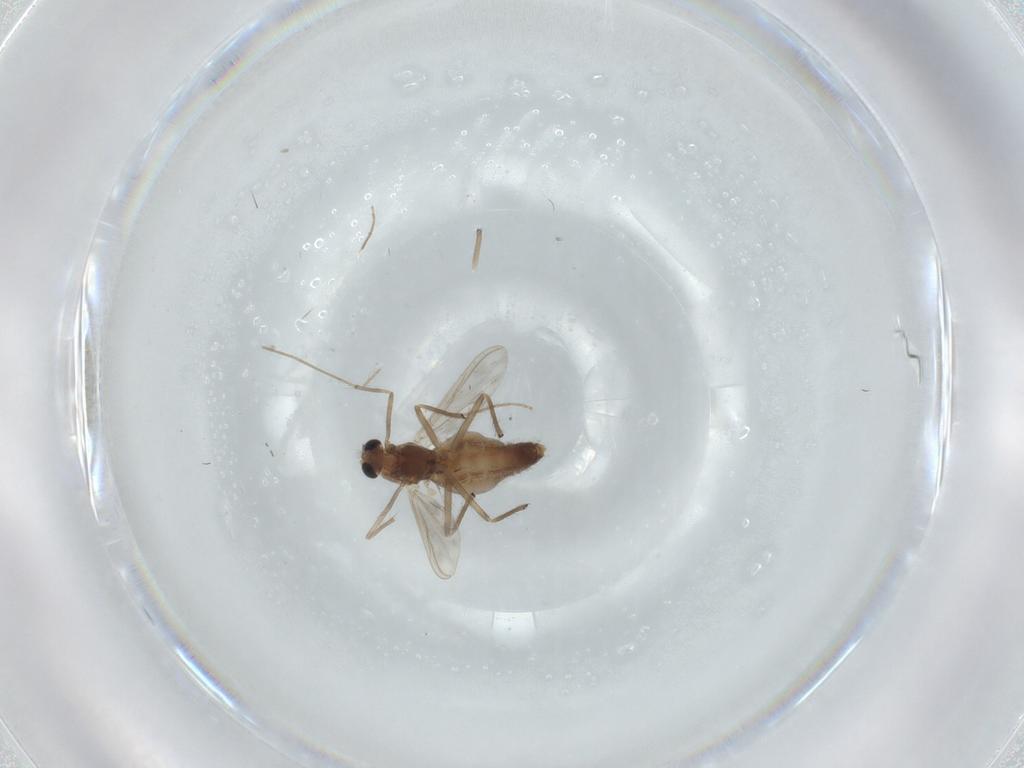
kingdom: Animalia
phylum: Arthropoda
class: Insecta
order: Diptera
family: Chironomidae
